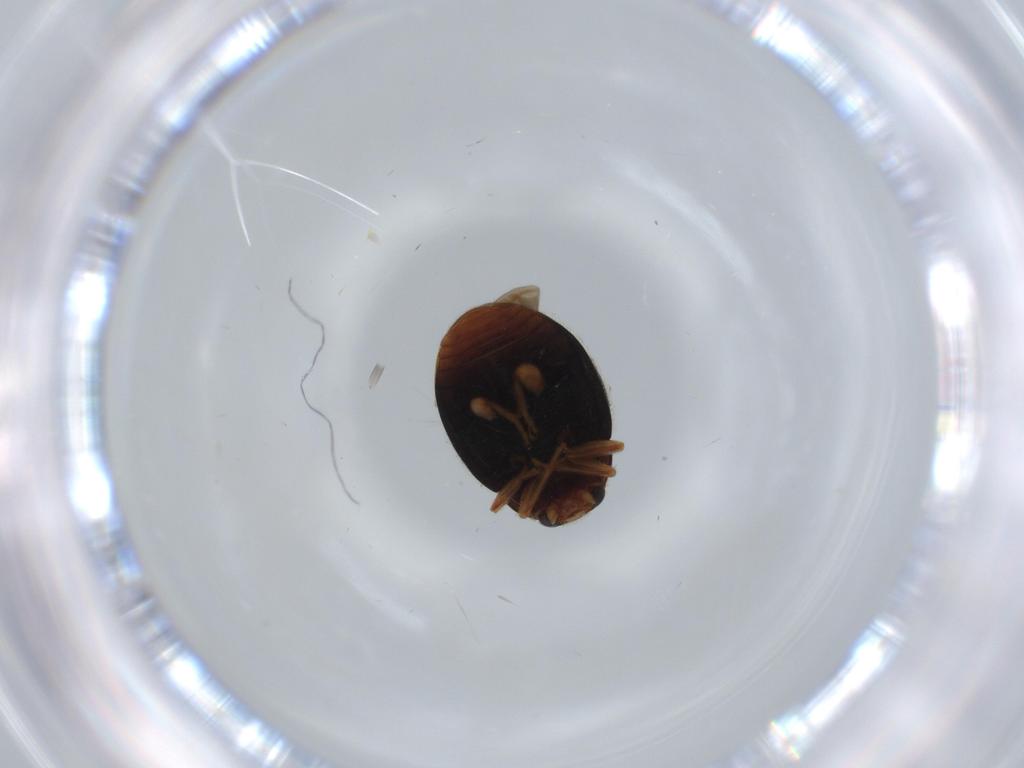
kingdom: Animalia
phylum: Arthropoda
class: Insecta
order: Coleoptera
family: Coccinellidae
